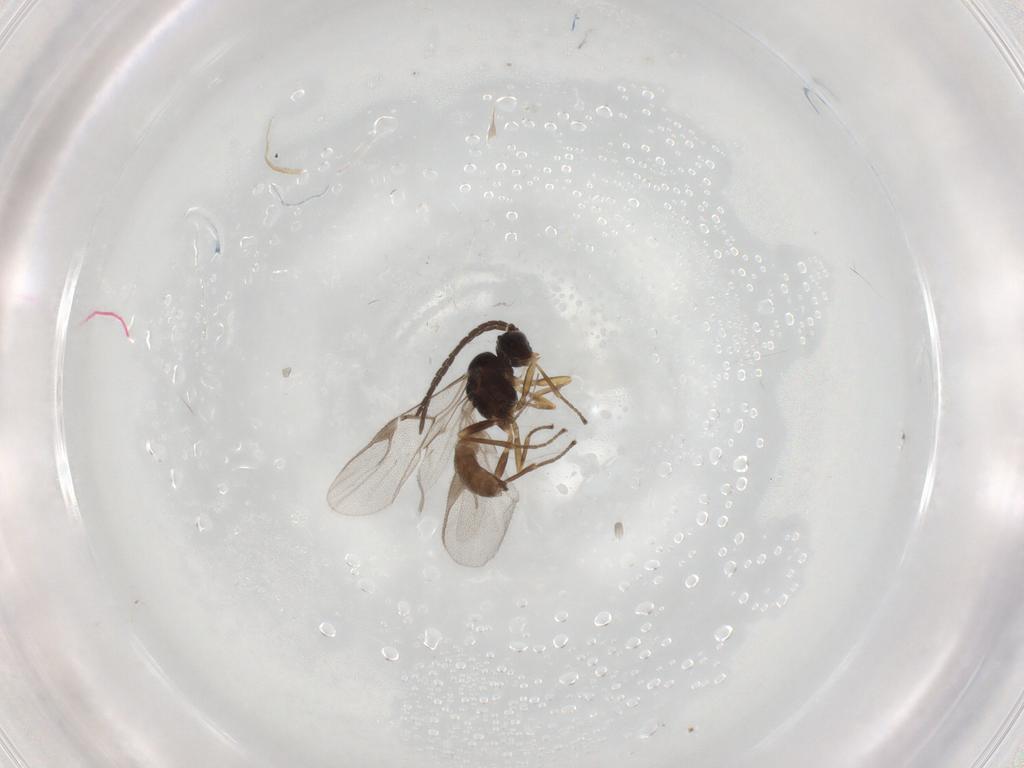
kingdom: Animalia
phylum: Arthropoda
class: Insecta
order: Hymenoptera
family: Braconidae
